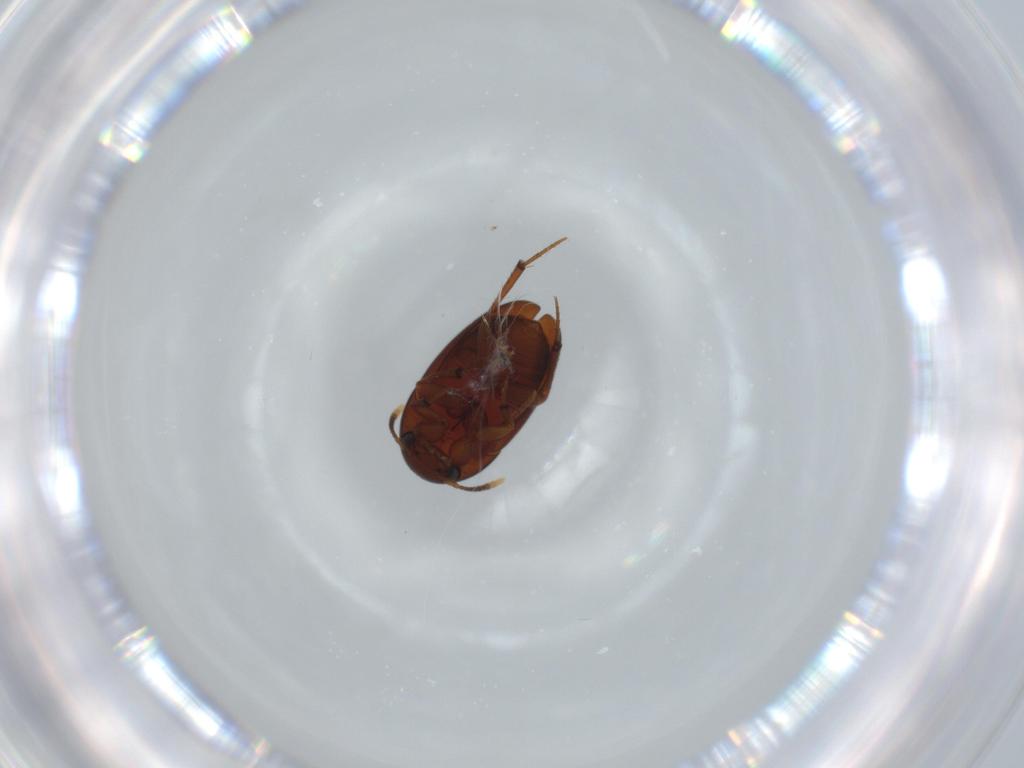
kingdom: Animalia
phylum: Arthropoda
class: Insecta
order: Coleoptera
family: Leiodidae
